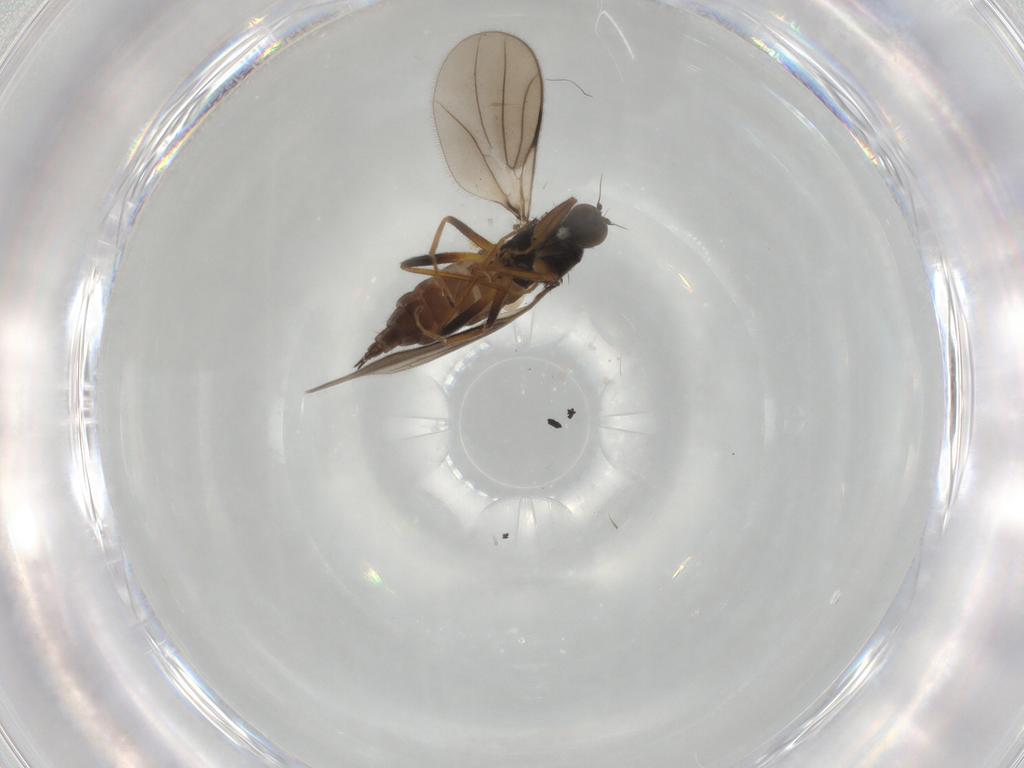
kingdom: Animalia
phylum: Arthropoda
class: Insecta
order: Diptera
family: Hybotidae
